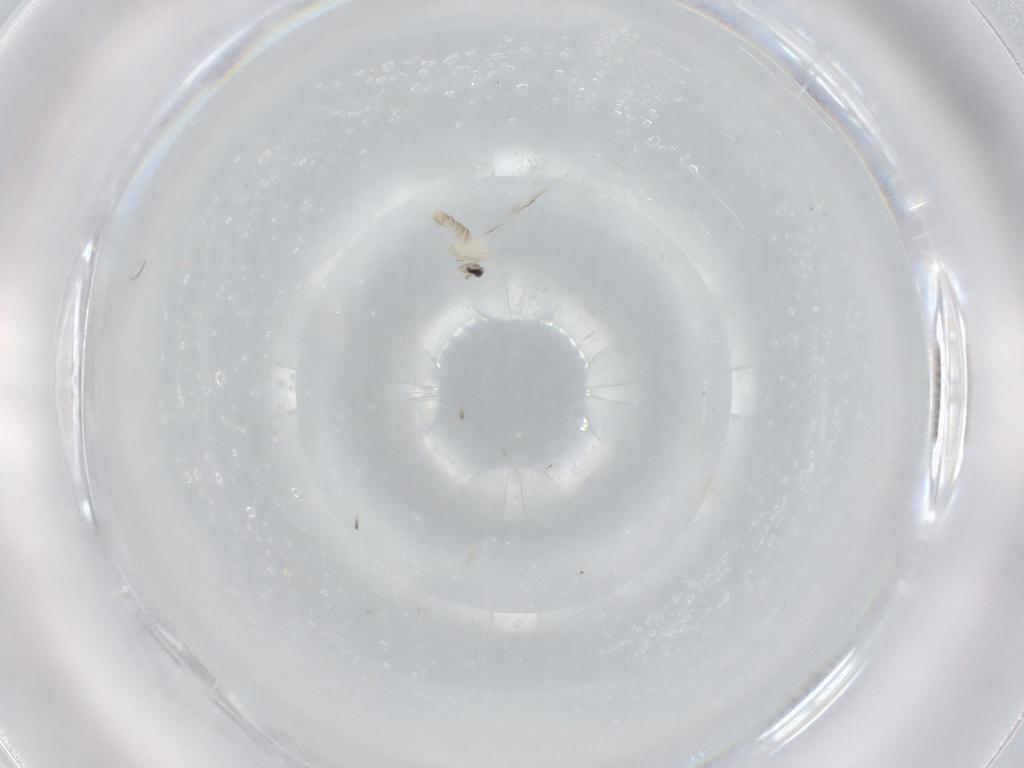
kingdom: Animalia
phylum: Arthropoda
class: Insecta
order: Diptera
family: Cecidomyiidae
